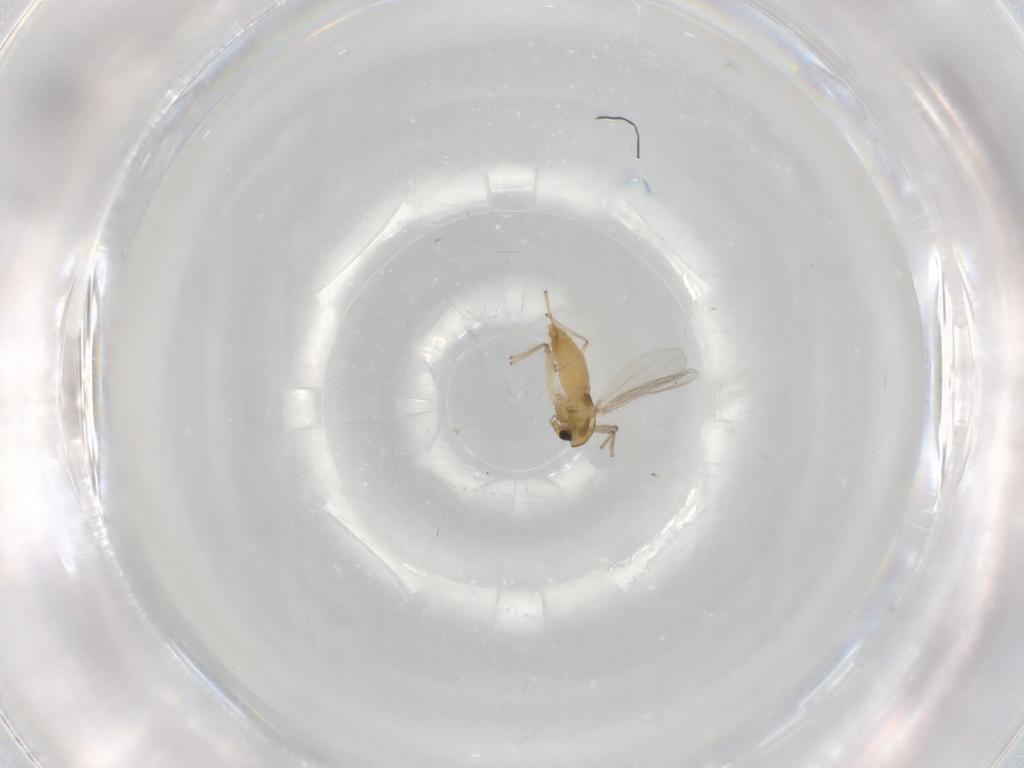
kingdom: Animalia
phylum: Arthropoda
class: Insecta
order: Diptera
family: Chironomidae
